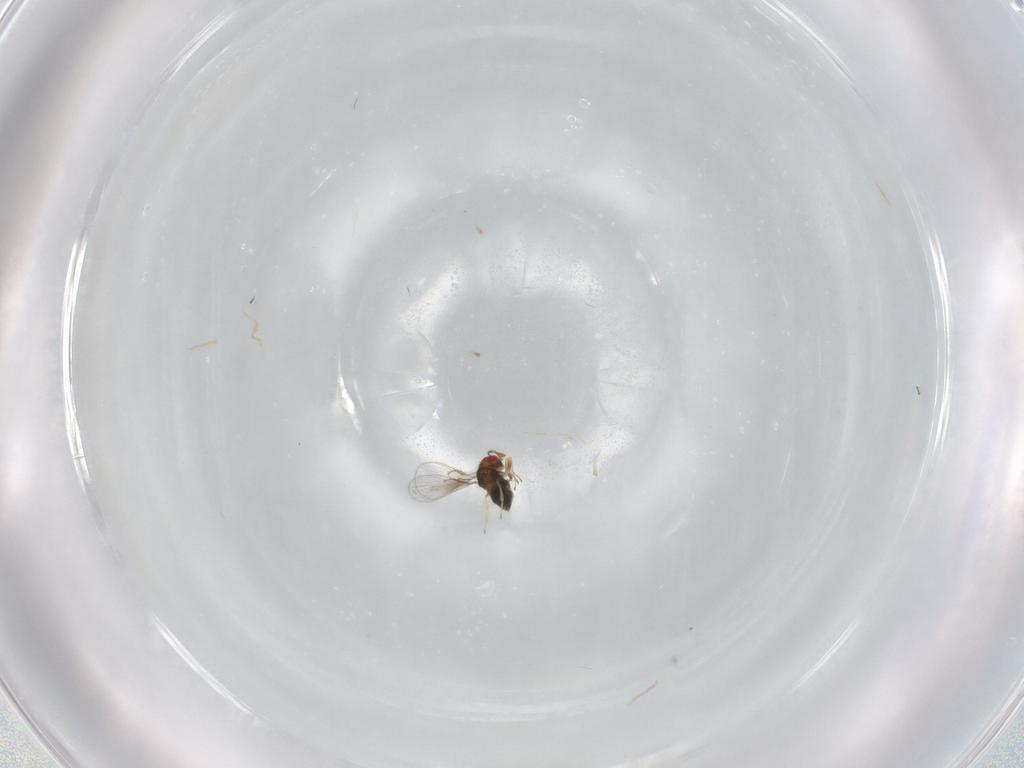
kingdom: Animalia
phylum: Arthropoda
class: Insecta
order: Hymenoptera
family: Trichogrammatidae
